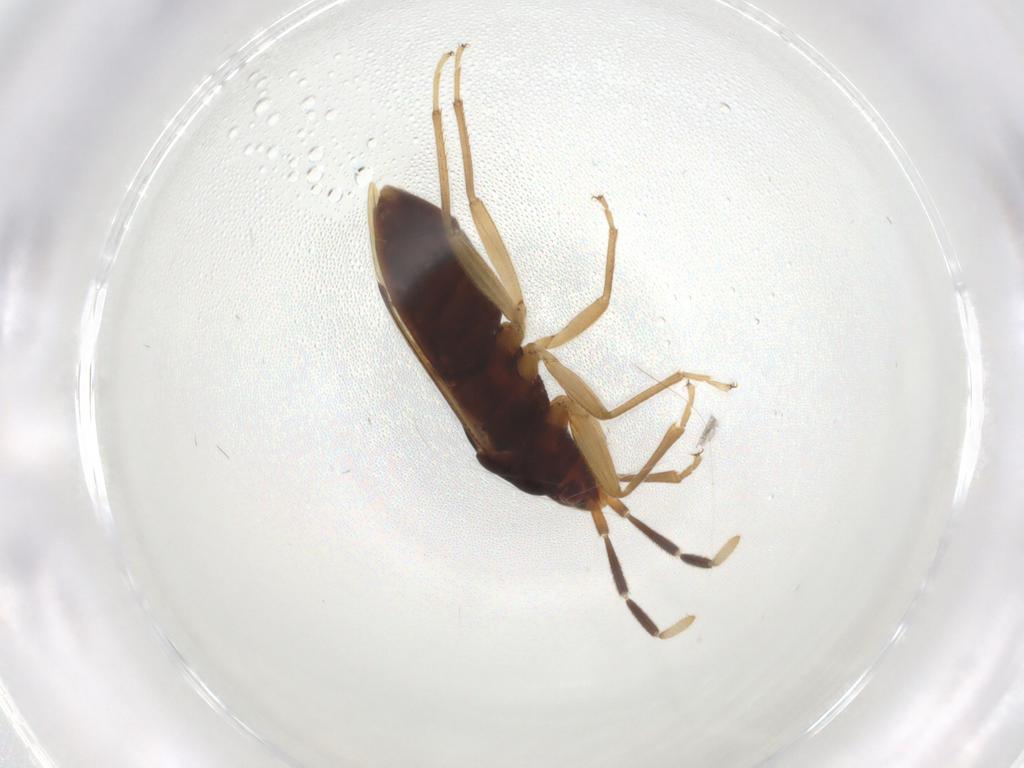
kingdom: Animalia
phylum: Arthropoda
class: Insecta
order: Hemiptera
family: Rhyparochromidae
